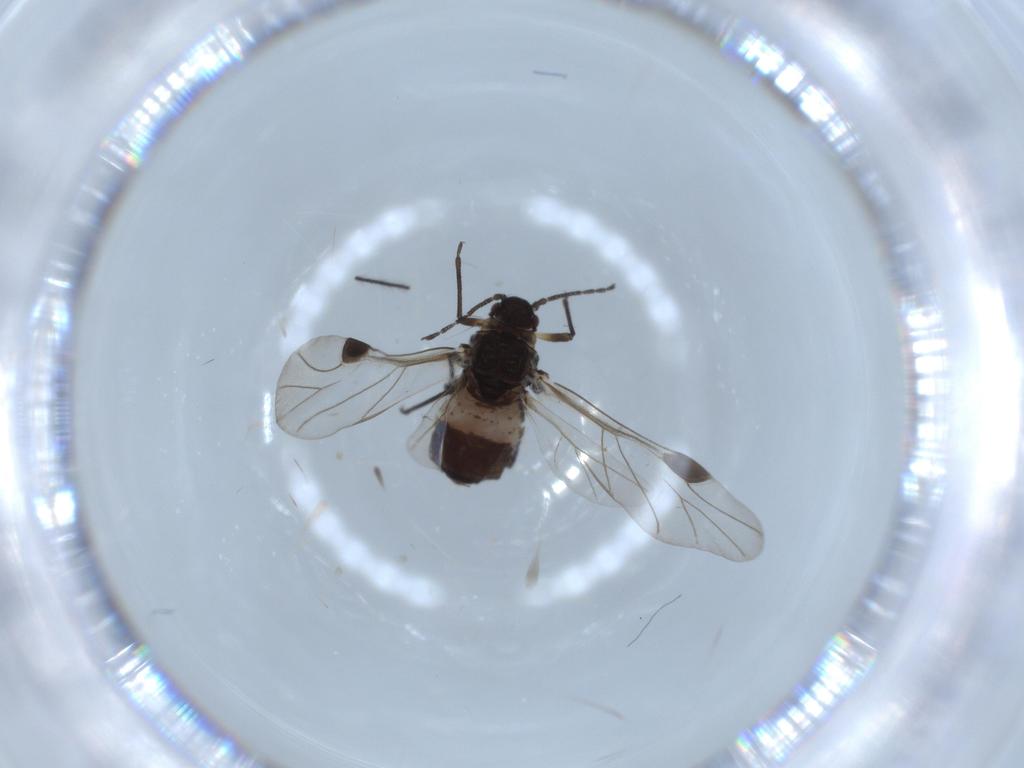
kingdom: Animalia
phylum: Arthropoda
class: Insecta
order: Hemiptera
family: Aphididae
